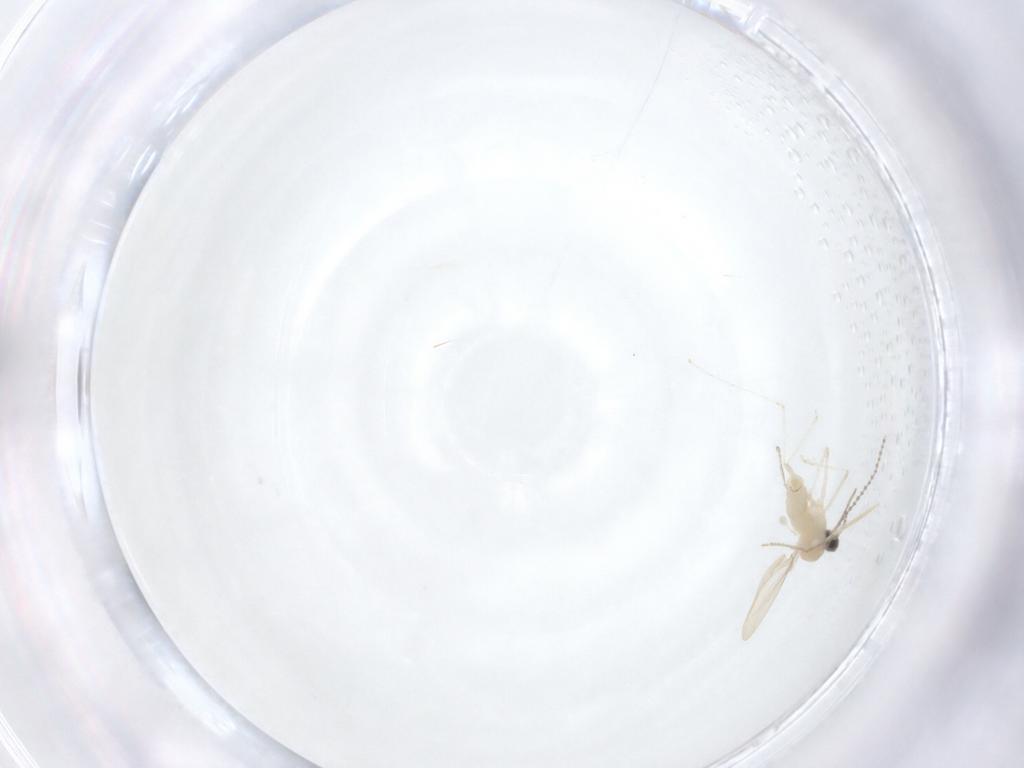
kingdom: Animalia
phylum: Arthropoda
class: Insecta
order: Diptera
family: Chironomidae
